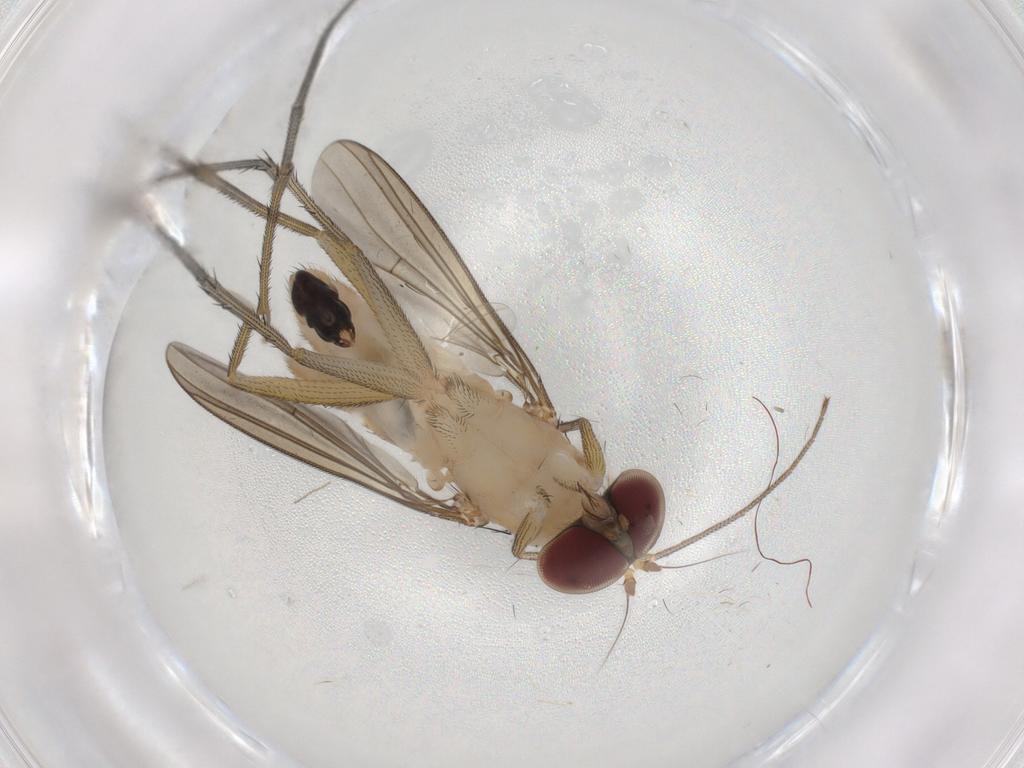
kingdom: Animalia
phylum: Arthropoda
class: Insecta
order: Diptera
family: Dolichopodidae
